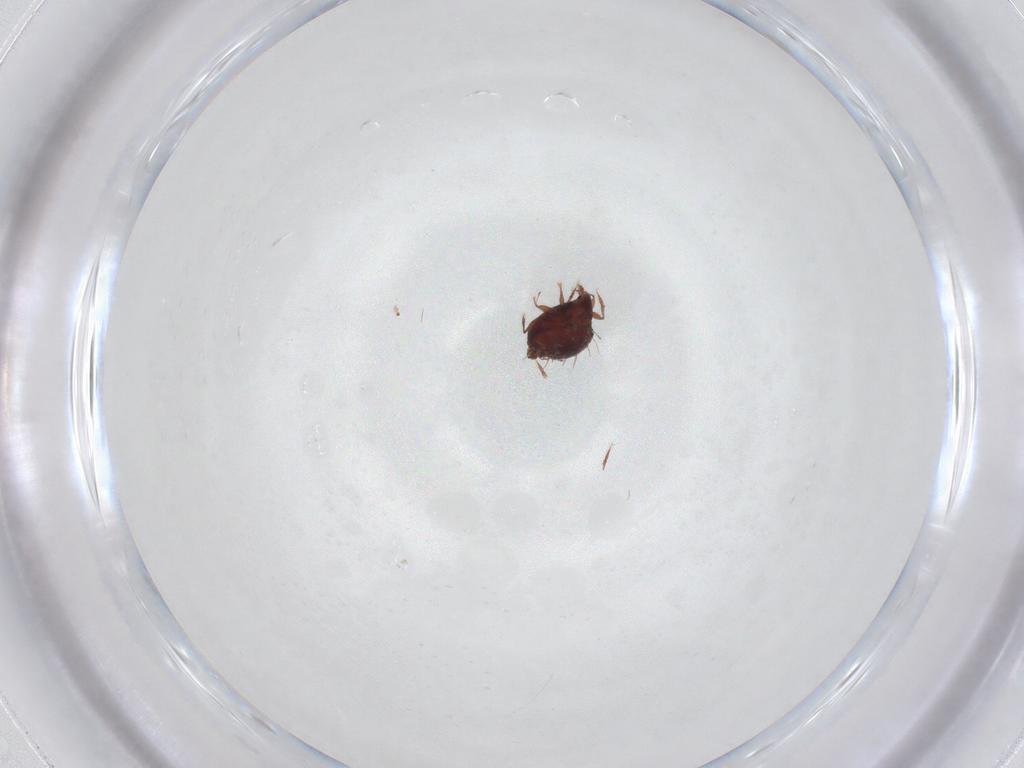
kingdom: Animalia
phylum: Arthropoda
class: Arachnida
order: Sarcoptiformes
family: Caloppiidae
